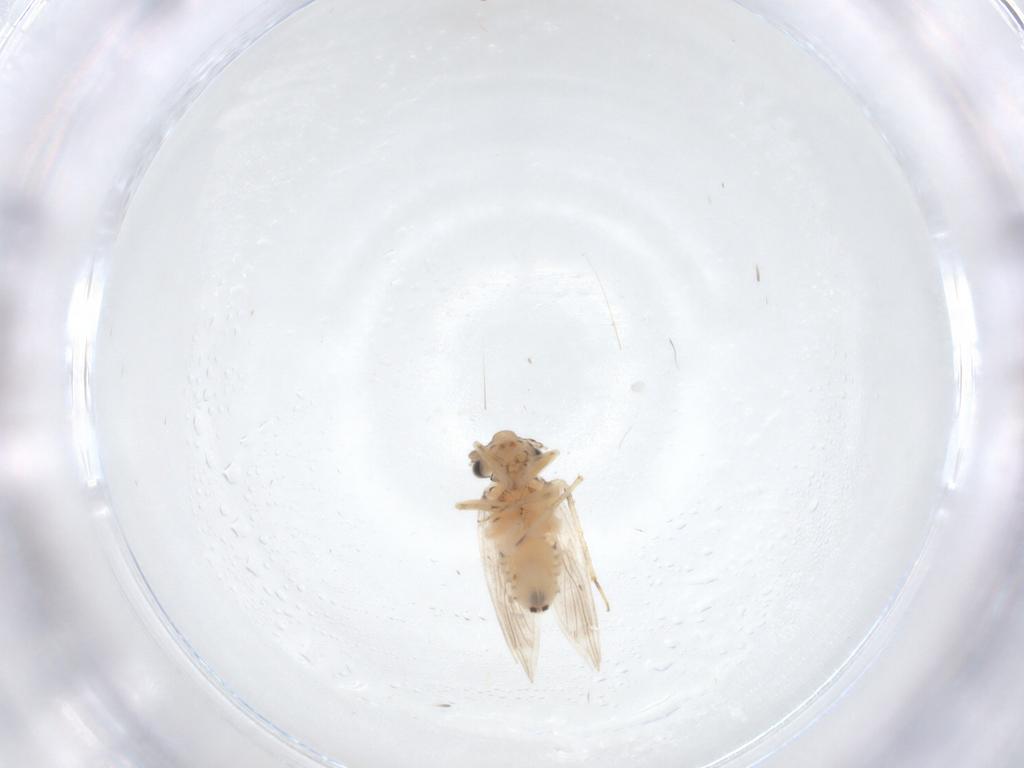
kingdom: Animalia
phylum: Arthropoda
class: Insecta
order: Psocodea
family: Lepidopsocidae
